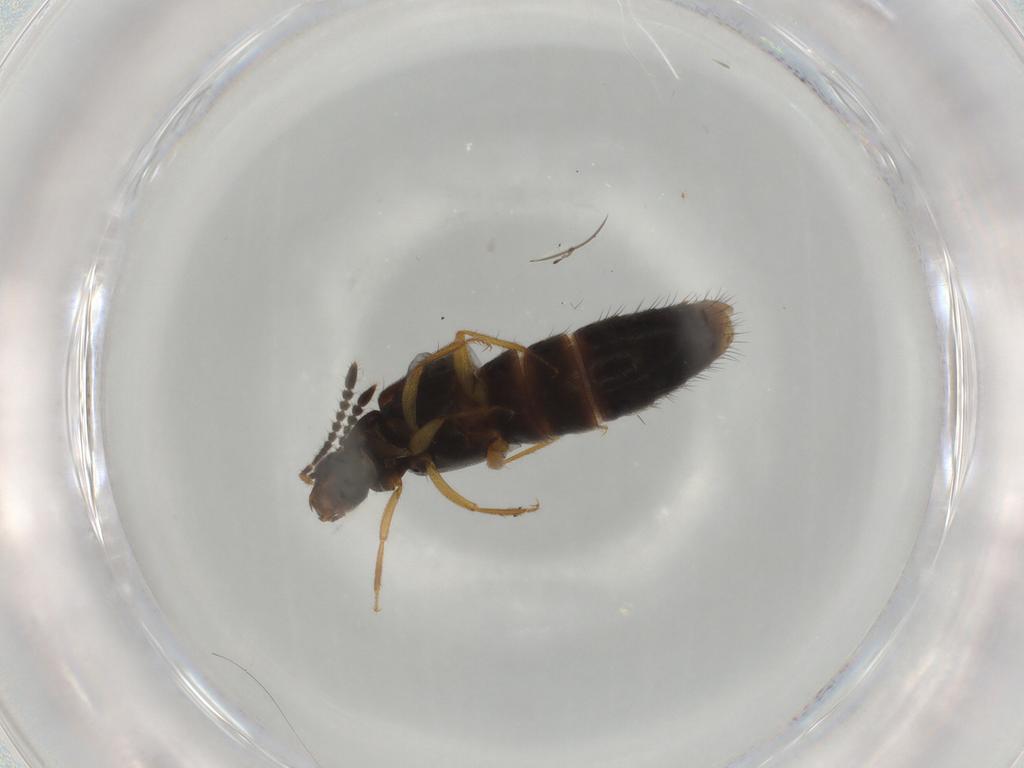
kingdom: Animalia
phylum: Arthropoda
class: Insecta
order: Coleoptera
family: Staphylinidae
